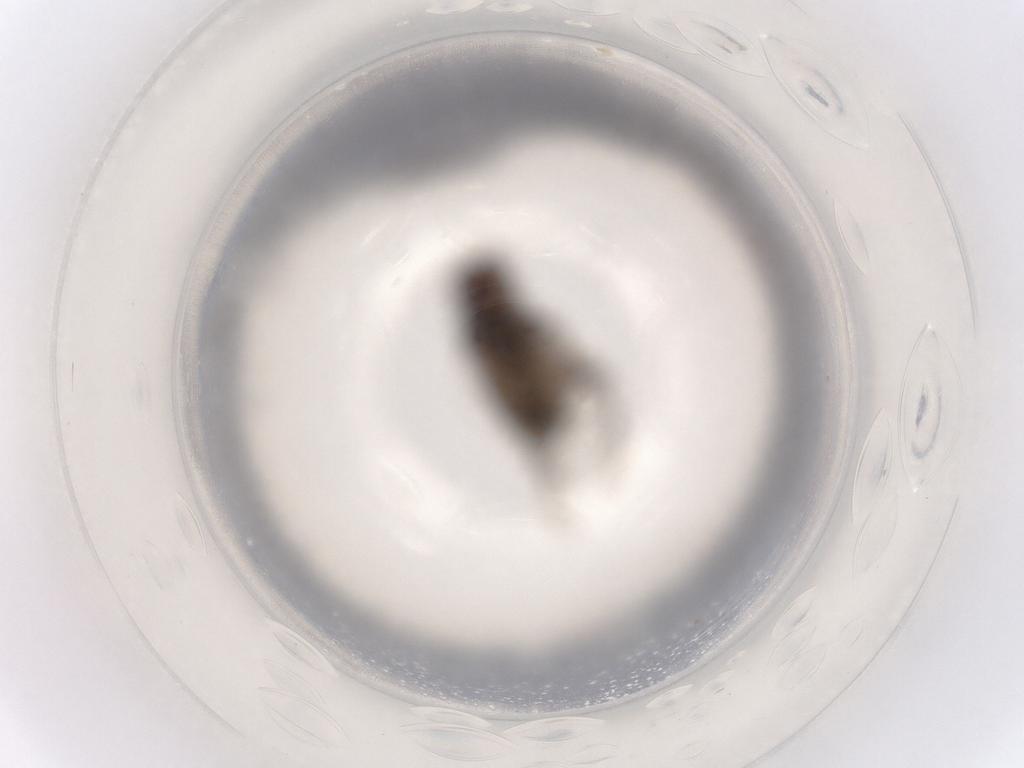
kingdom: Animalia
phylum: Arthropoda
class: Insecta
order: Diptera
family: Sphaeroceridae
